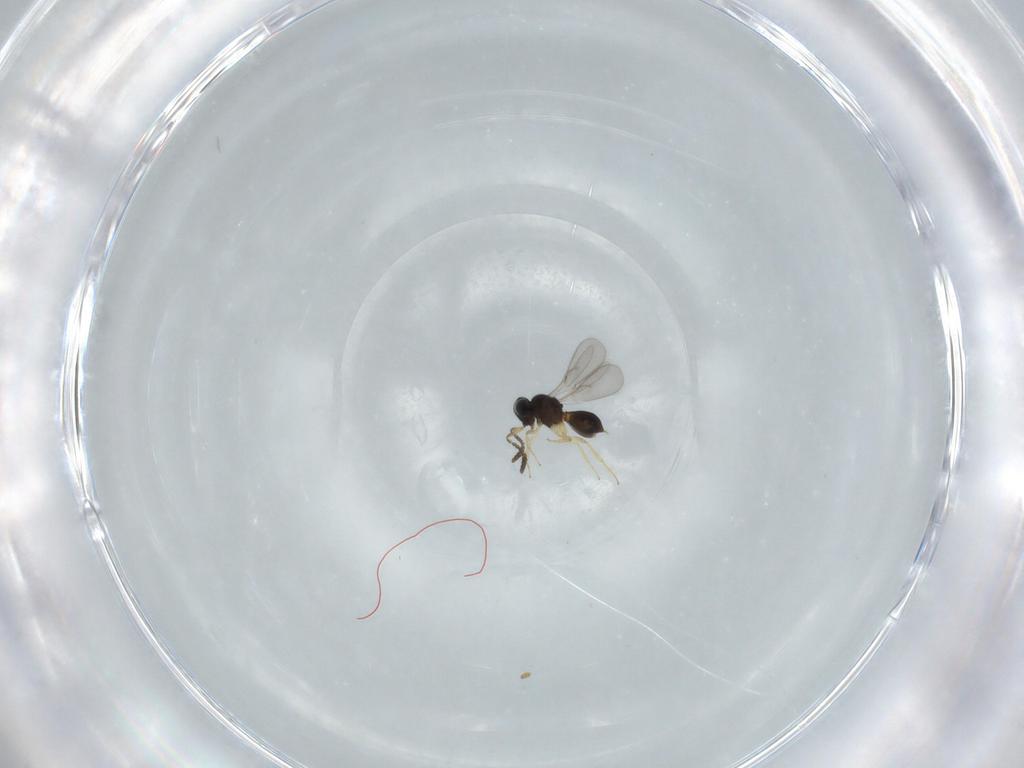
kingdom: Animalia
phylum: Arthropoda
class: Insecta
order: Hymenoptera
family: Scelionidae
